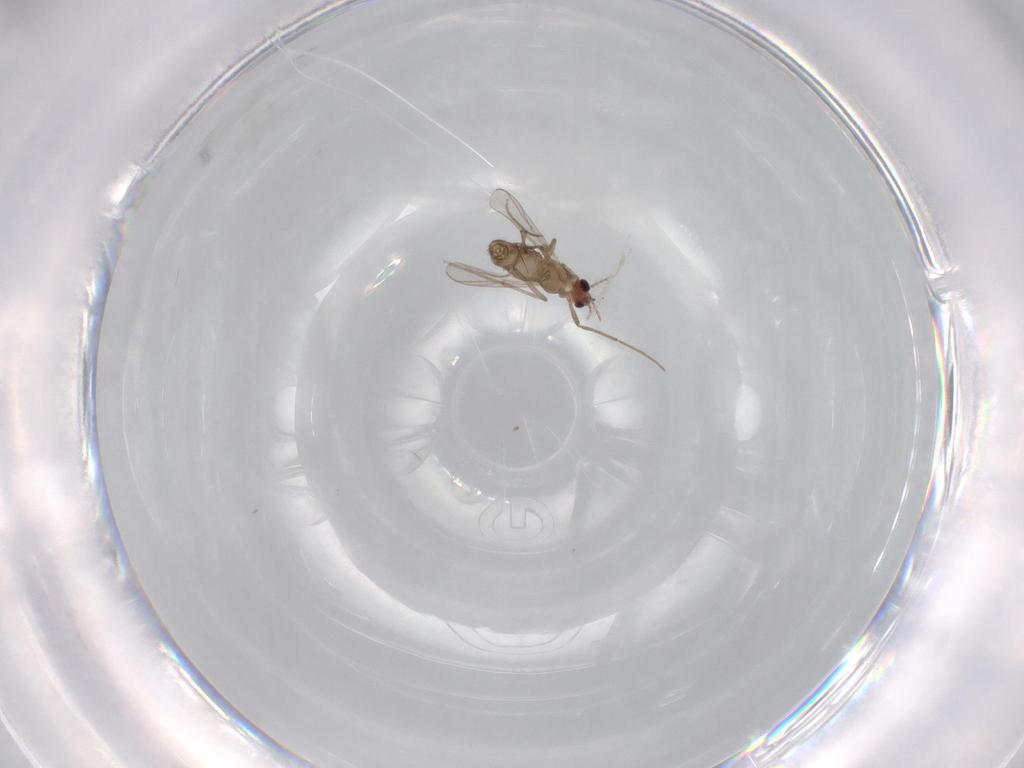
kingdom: Animalia
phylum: Arthropoda
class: Insecta
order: Diptera
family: Chironomidae
